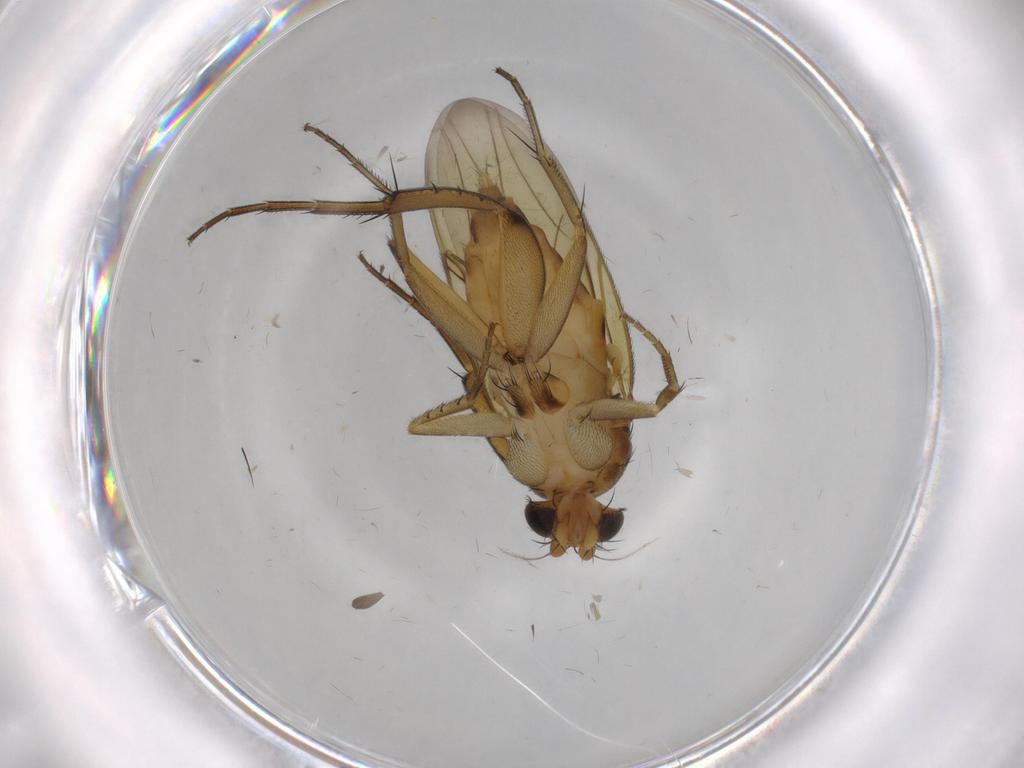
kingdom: Animalia
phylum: Arthropoda
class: Insecta
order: Diptera
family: Phoridae
